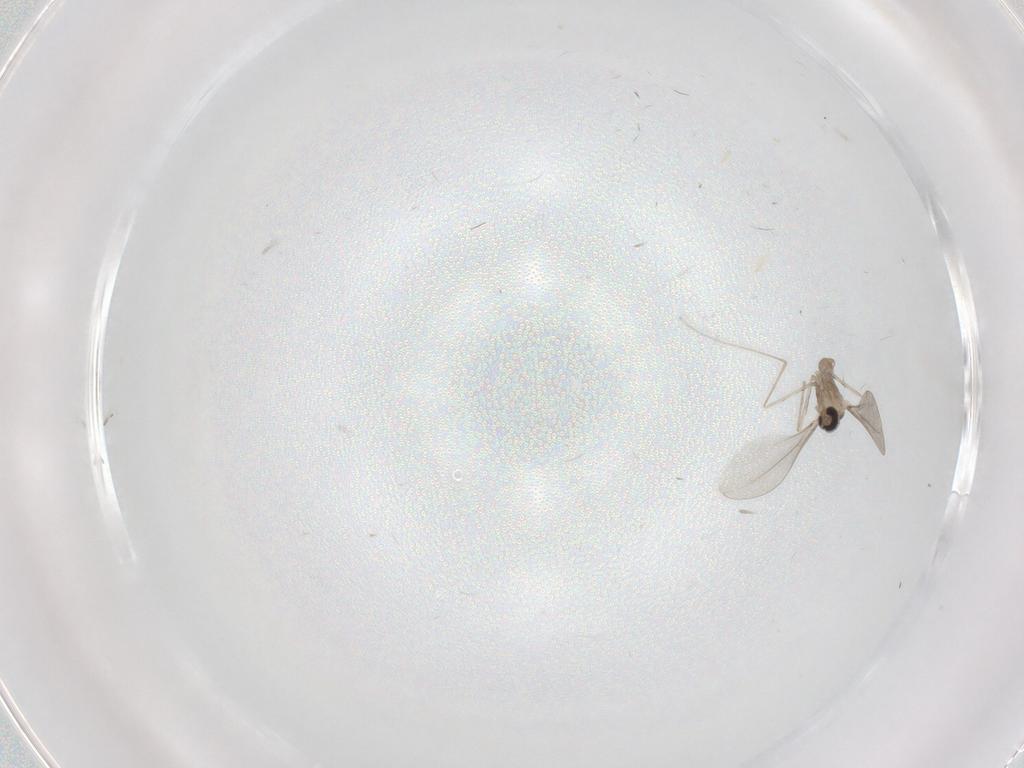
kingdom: Animalia
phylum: Arthropoda
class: Insecta
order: Diptera
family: Cecidomyiidae
